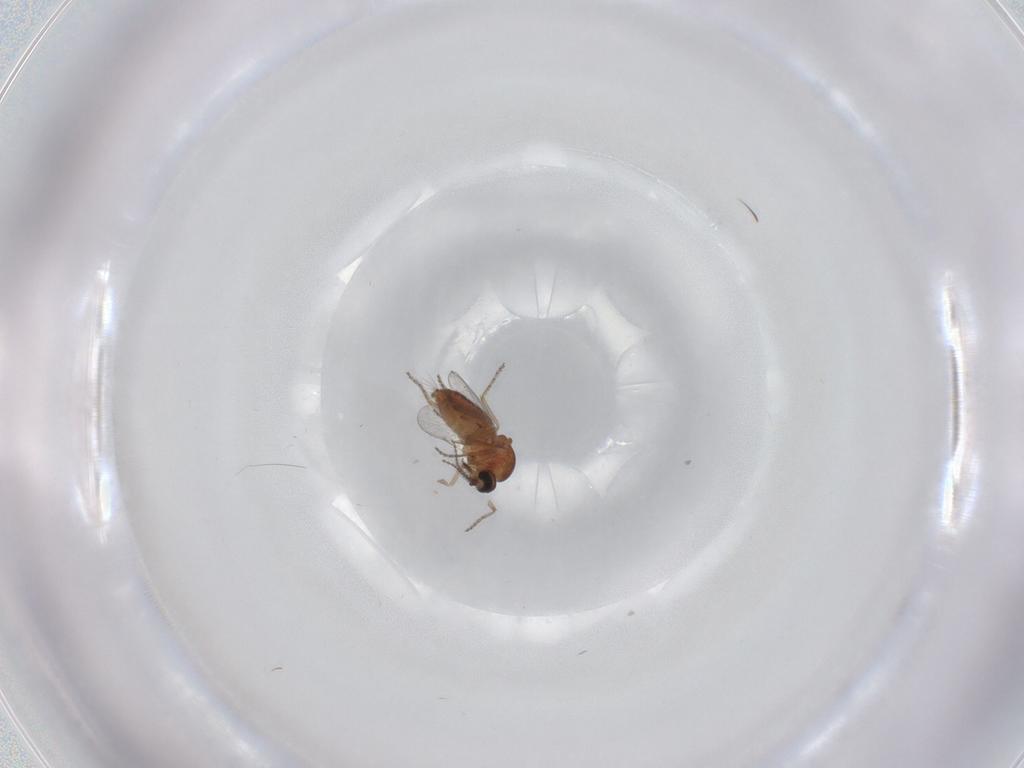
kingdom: Animalia
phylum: Arthropoda
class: Insecta
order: Diptera
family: Ceratopogonidae
